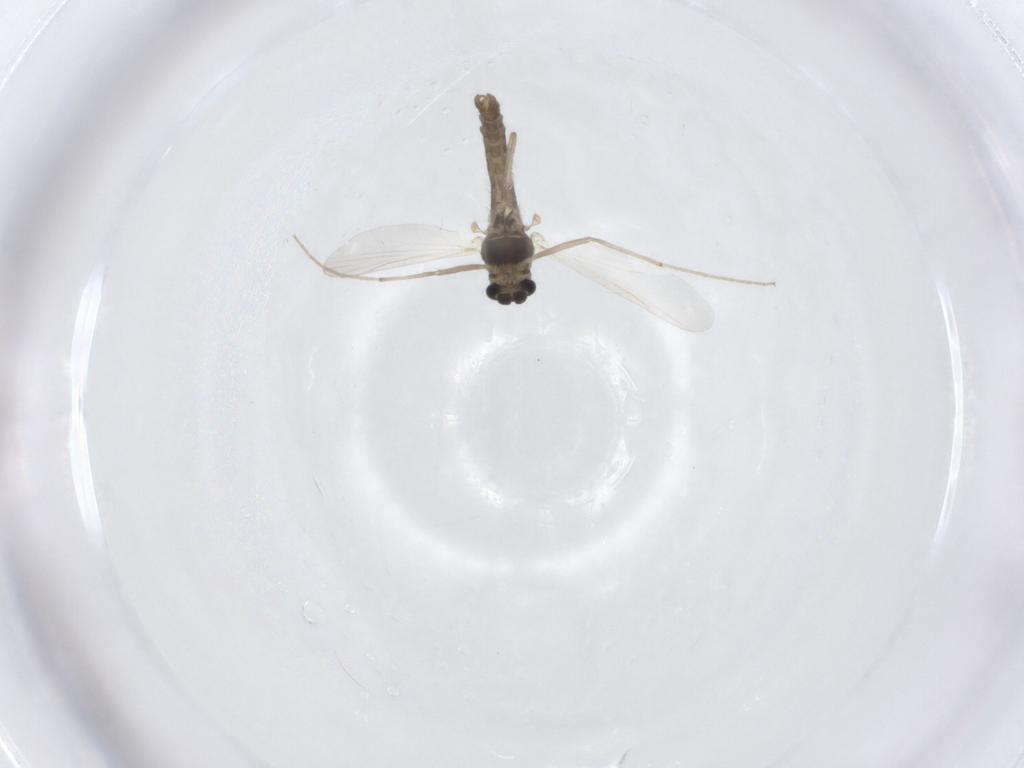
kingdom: Animalia
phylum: Arthropoda
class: Insecta
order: Diptera
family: Chironomidae
